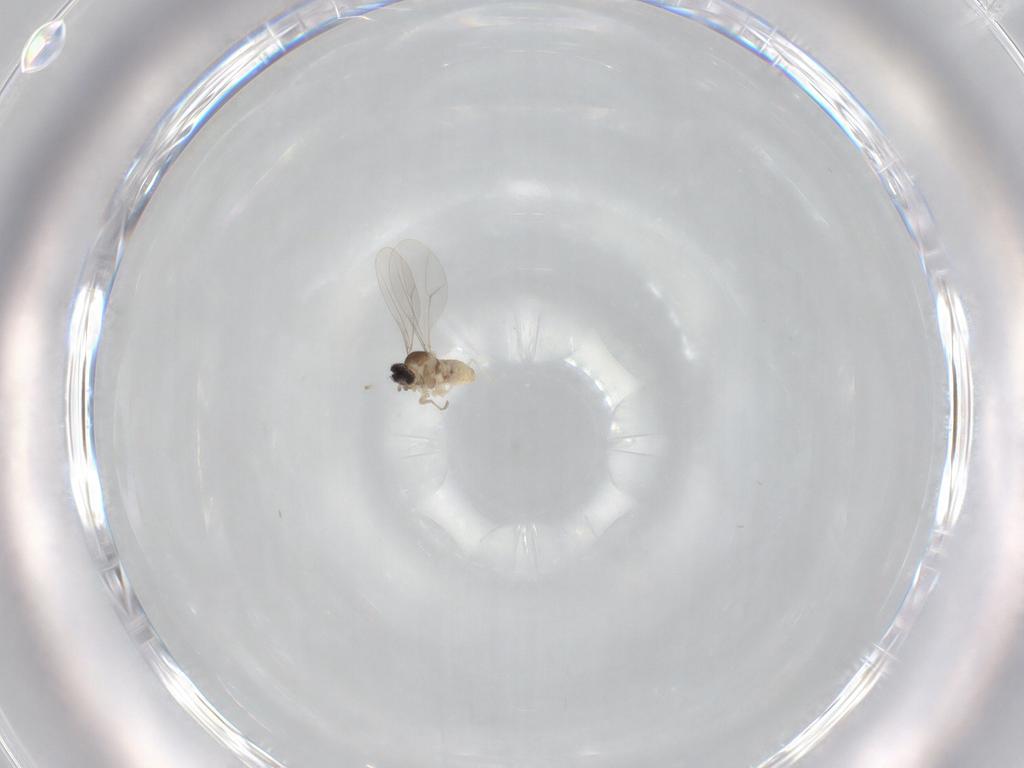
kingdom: Animalia
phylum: Arthropoda
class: Insecta
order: Diptera
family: Cecidomyiidae
